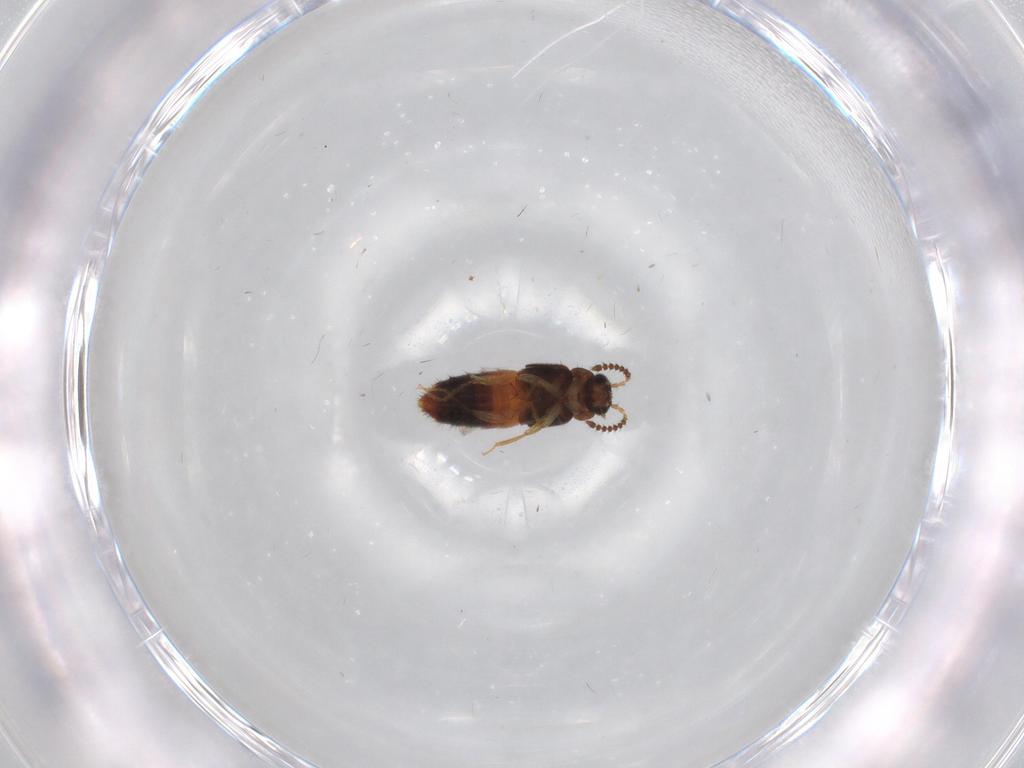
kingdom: Animalia
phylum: Arthropoda
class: Insecta
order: Coleoptera
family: Staphylinidae
